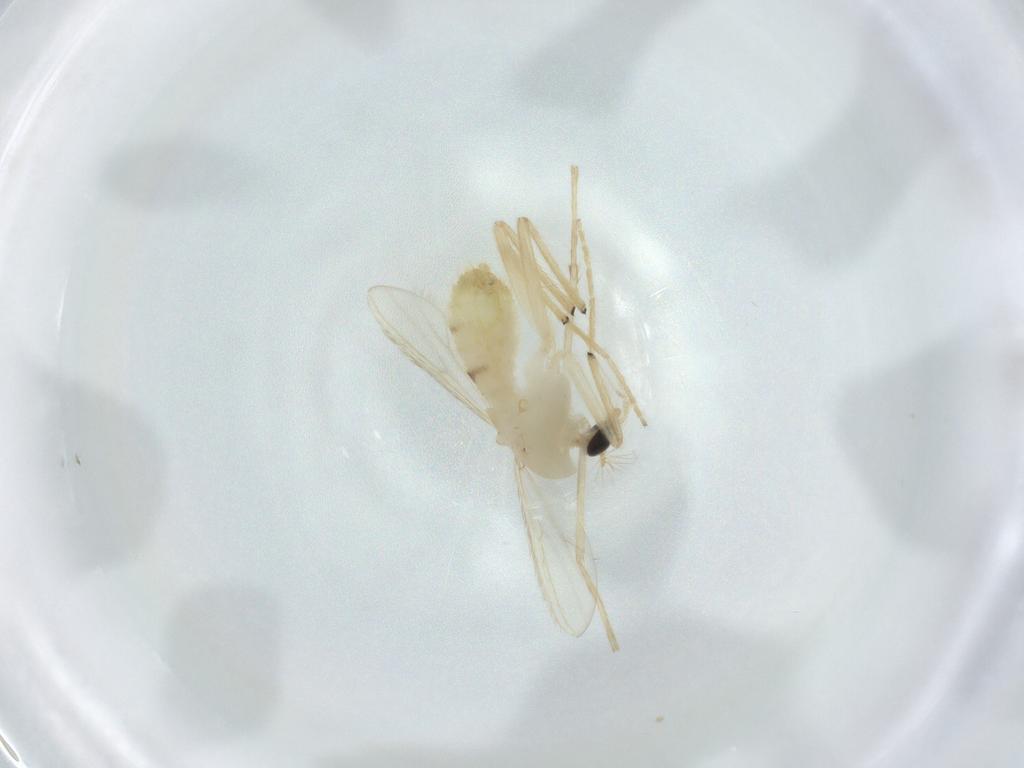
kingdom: Animalia
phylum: Arthropoda
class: Insecta
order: Diptera
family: Chironomidae
